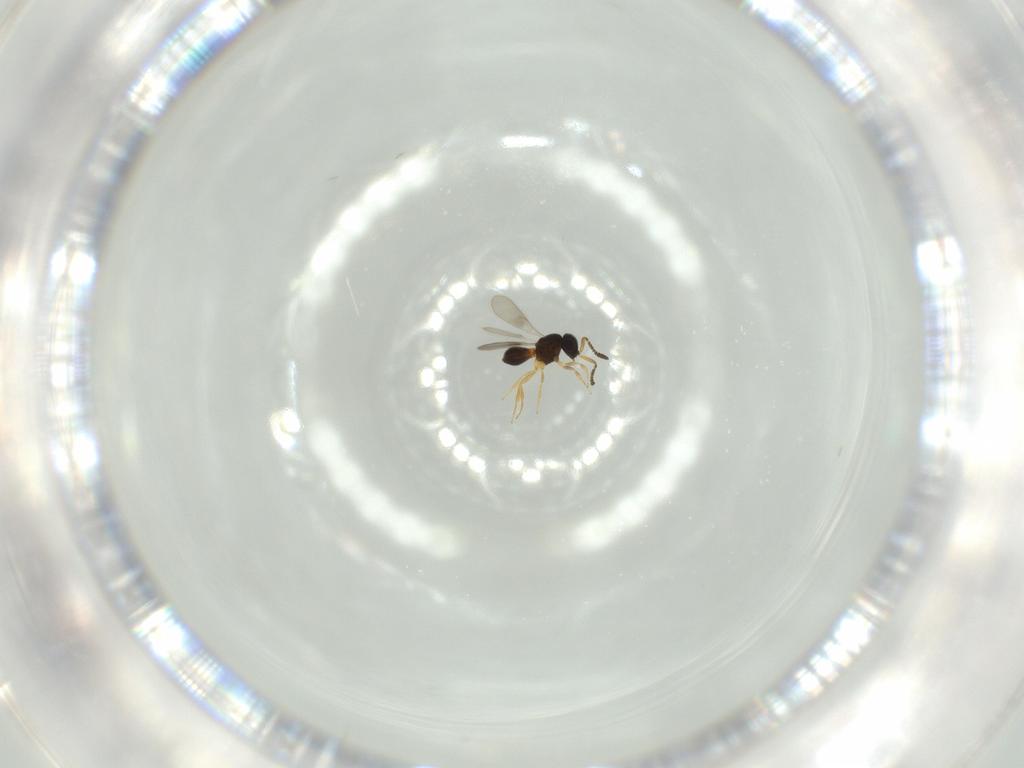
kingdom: Animalia
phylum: Arthropoda
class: Insecta
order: Hymenoptera
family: Scelionidae
